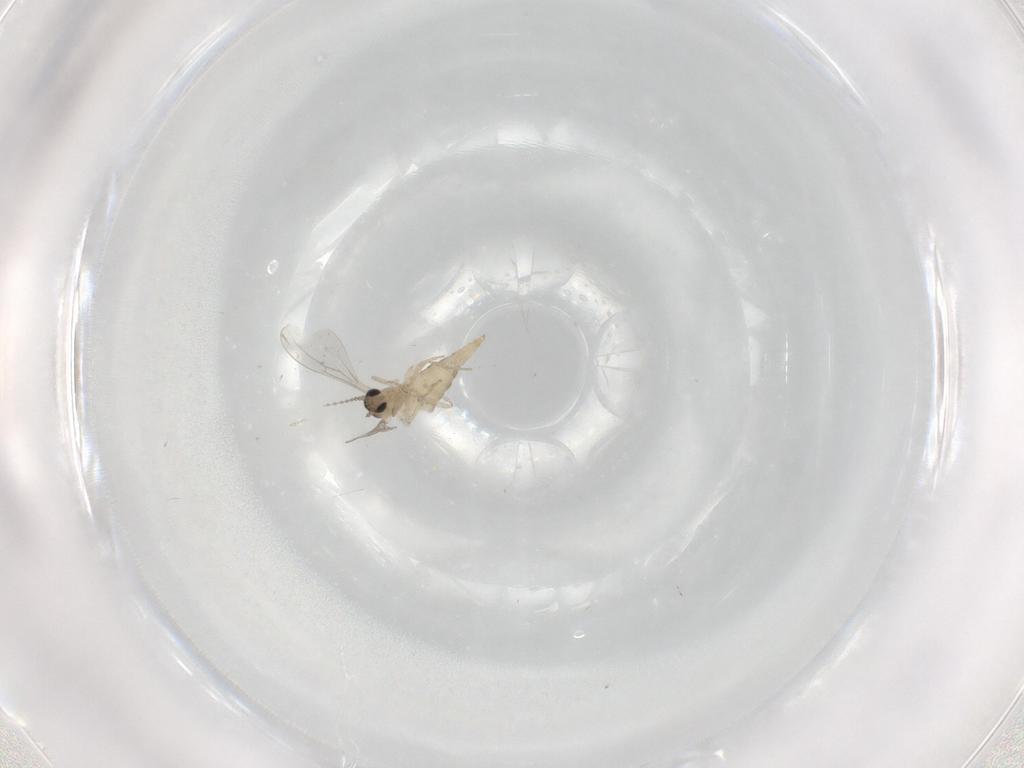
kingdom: Animalia
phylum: Arthropoda
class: Insecta
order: Diptera
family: Cecidomyiidae
